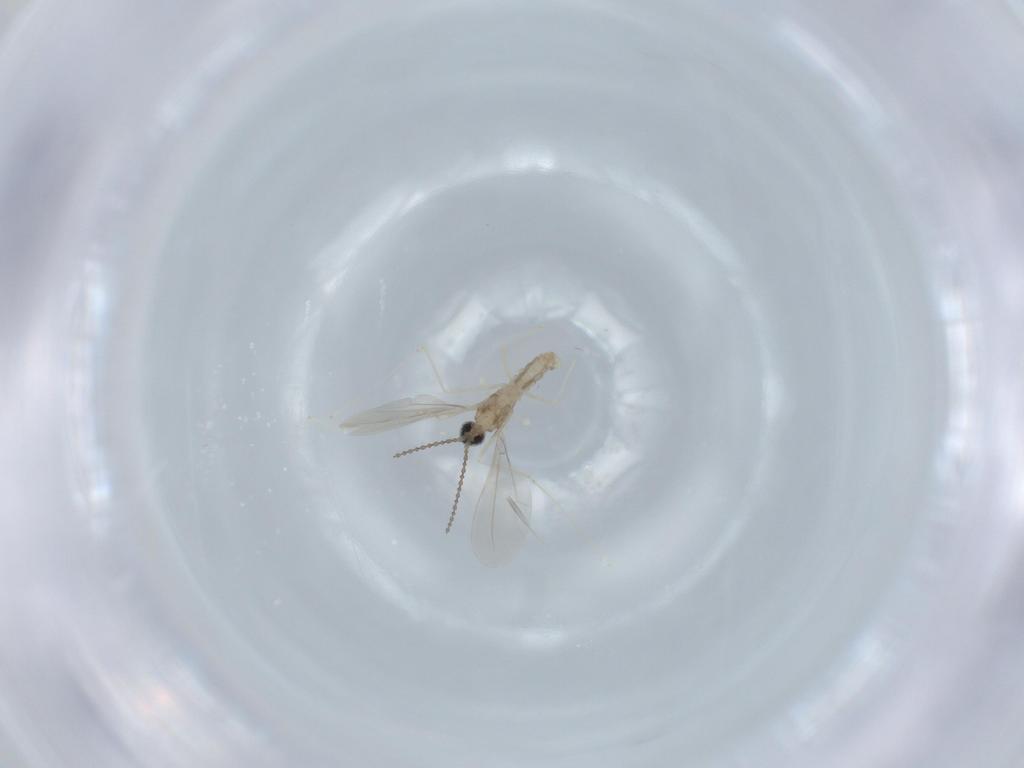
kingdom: Animalia
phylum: Arthropoda
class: Insecta
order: Diptera
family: Cecidomyiidae
